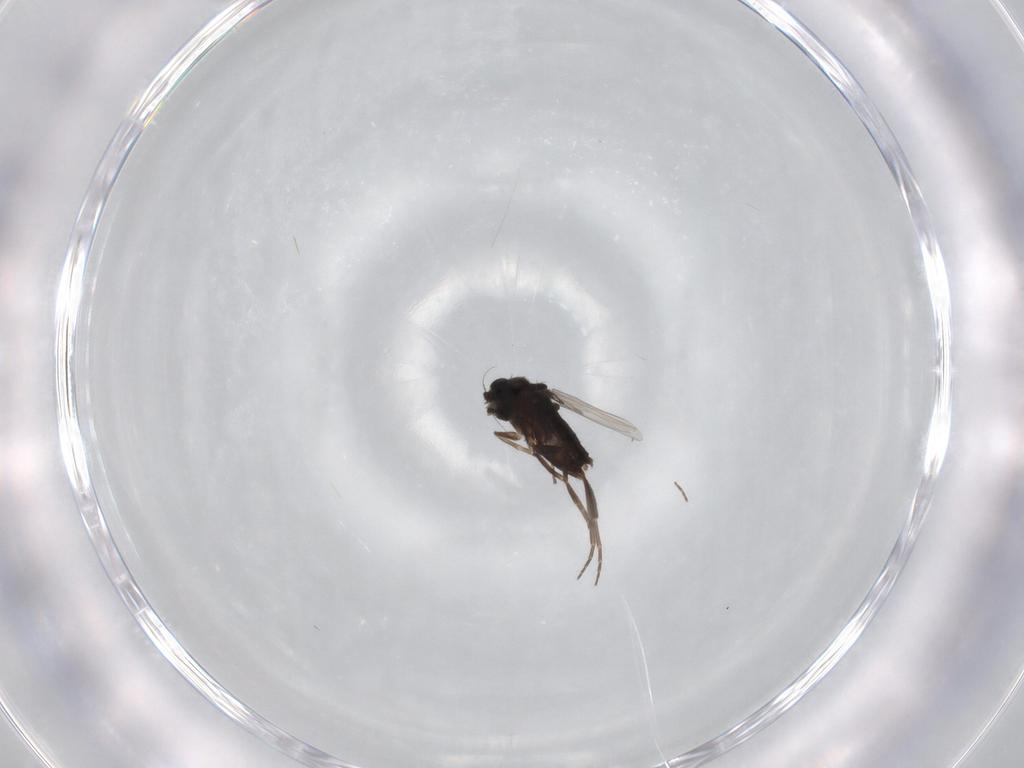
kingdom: Animalia
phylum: Arthropoda
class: Insecta
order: Diptera
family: Phoridae
